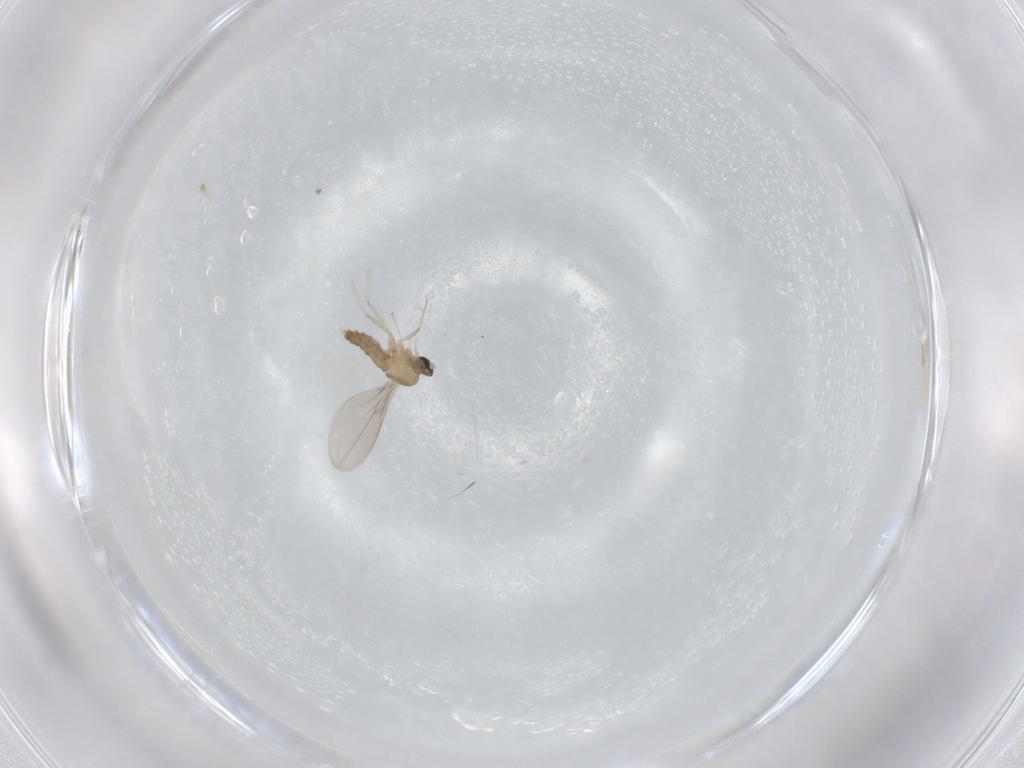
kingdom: Animalia
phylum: Arthropoda
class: Insecta
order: Diptera
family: Cecidomyiidae
